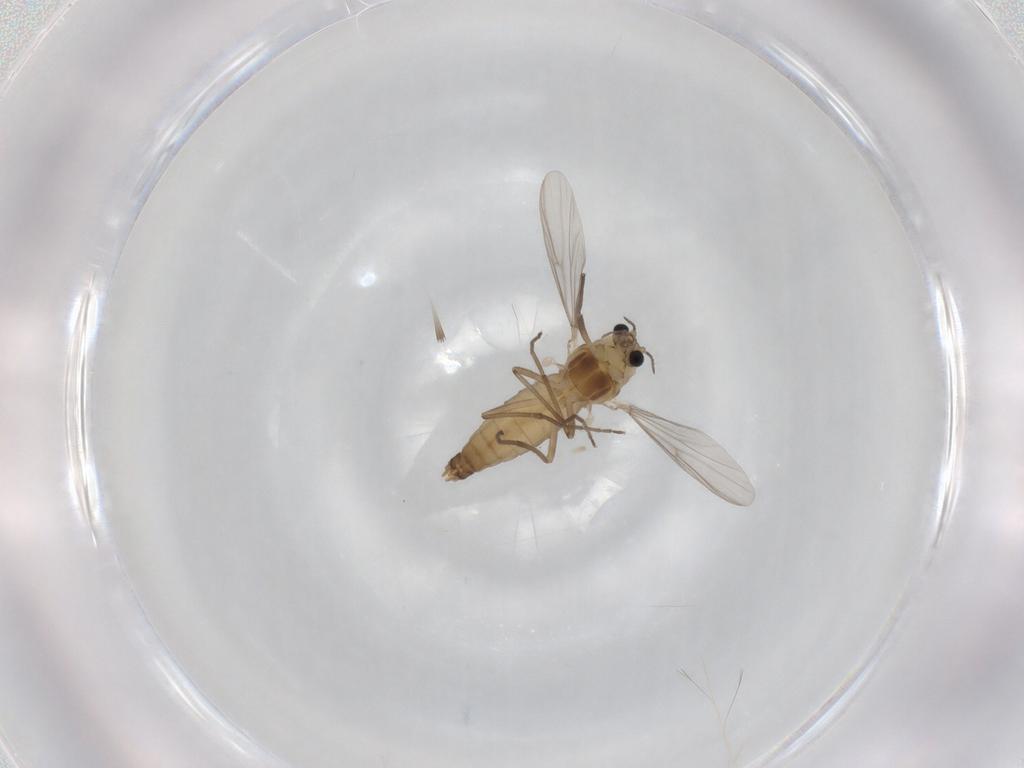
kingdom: Animalia
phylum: Arthropoda
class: Insecta
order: Diptera
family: Chironomidae
